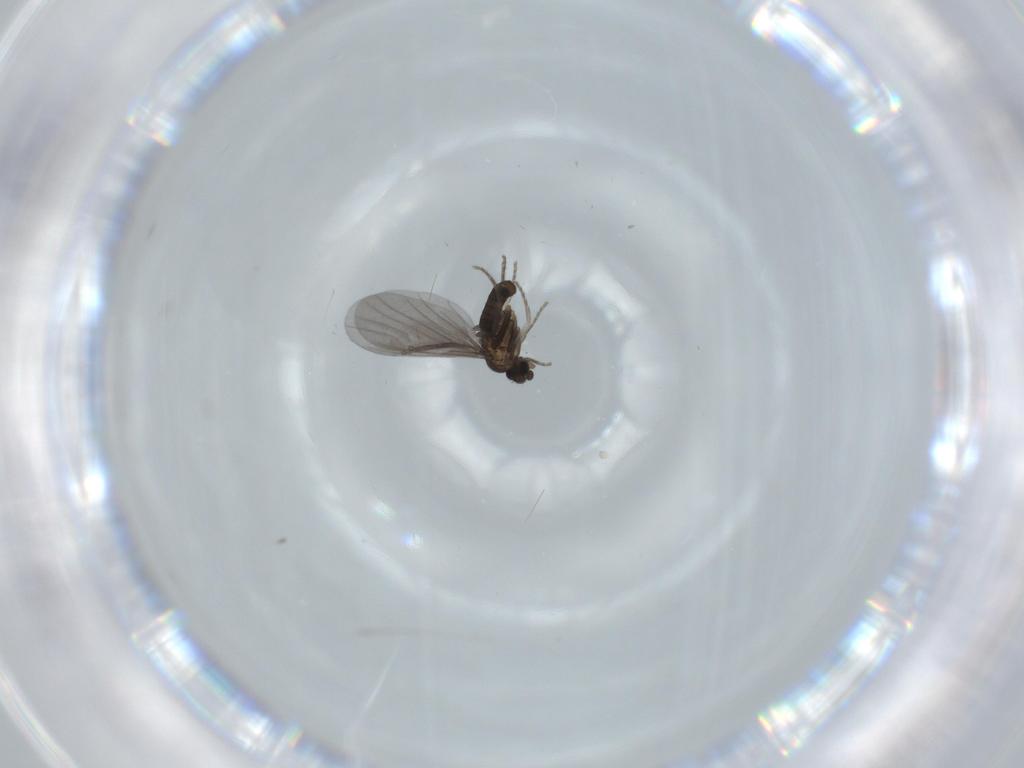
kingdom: Animalia
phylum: Arthropoda
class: Insecta
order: Diptera
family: Phoridae
